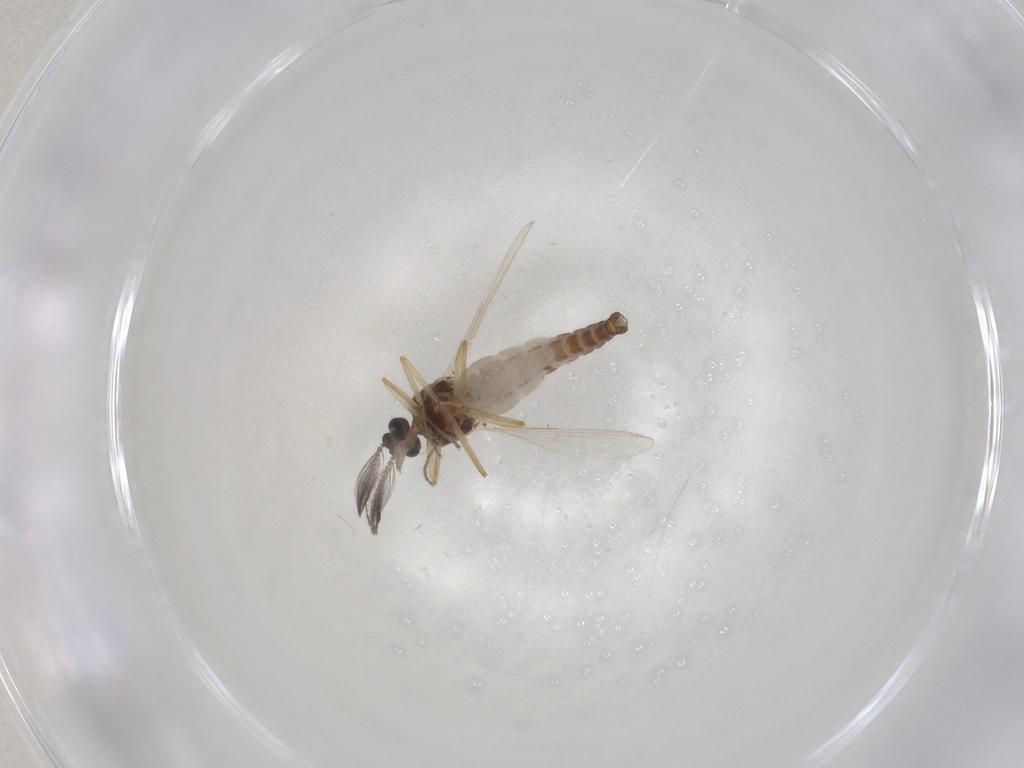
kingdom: Animalia
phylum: Arthropoda
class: Insecta
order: Diptera
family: Ceratopogonidae
